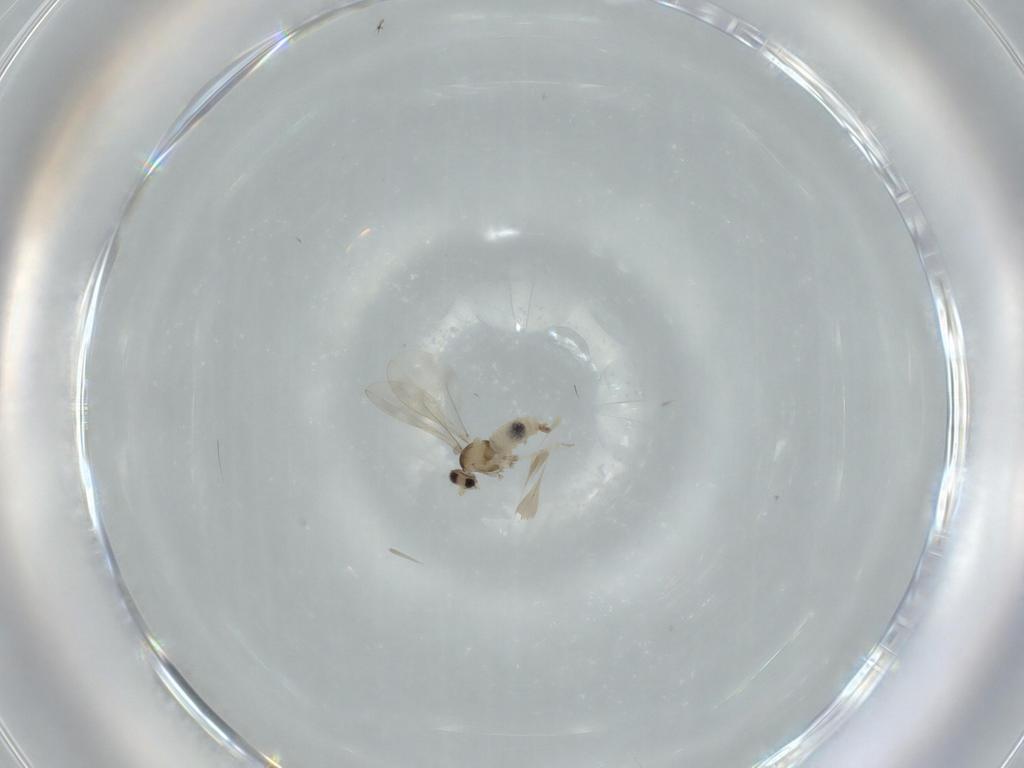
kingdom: Animalia
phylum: Arthropoda
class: Insecta
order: Diptera
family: Cecidomyiidae
